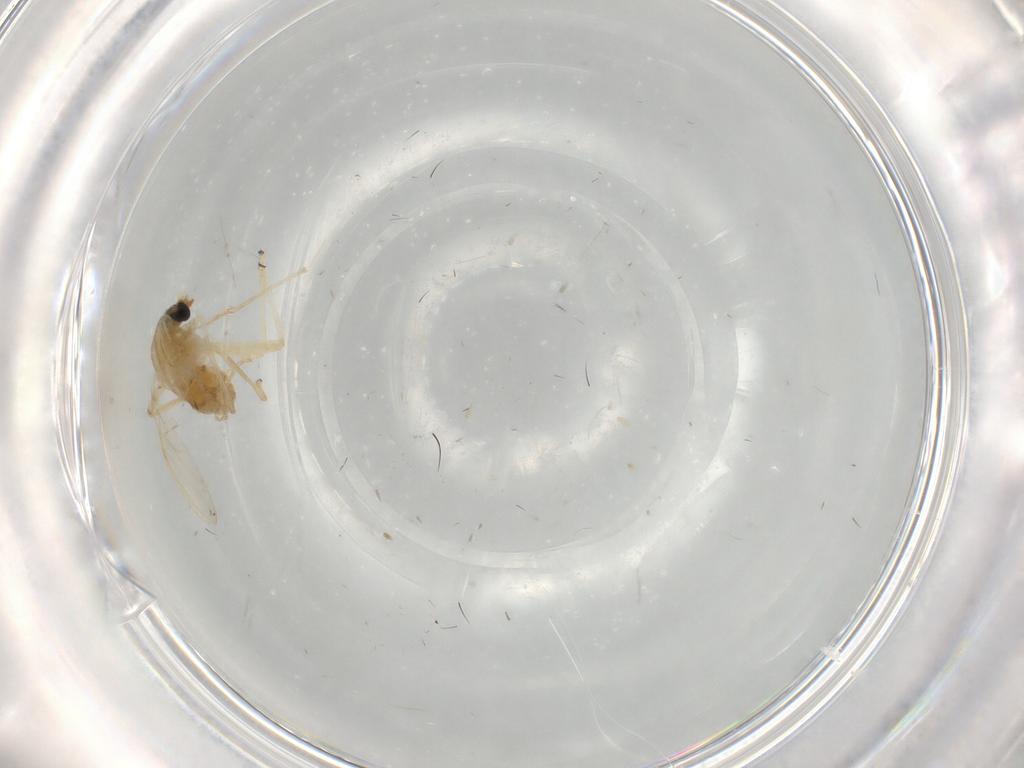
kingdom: Animalia
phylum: Arthropoda
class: Insecta
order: Diptera
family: Chironomidae
